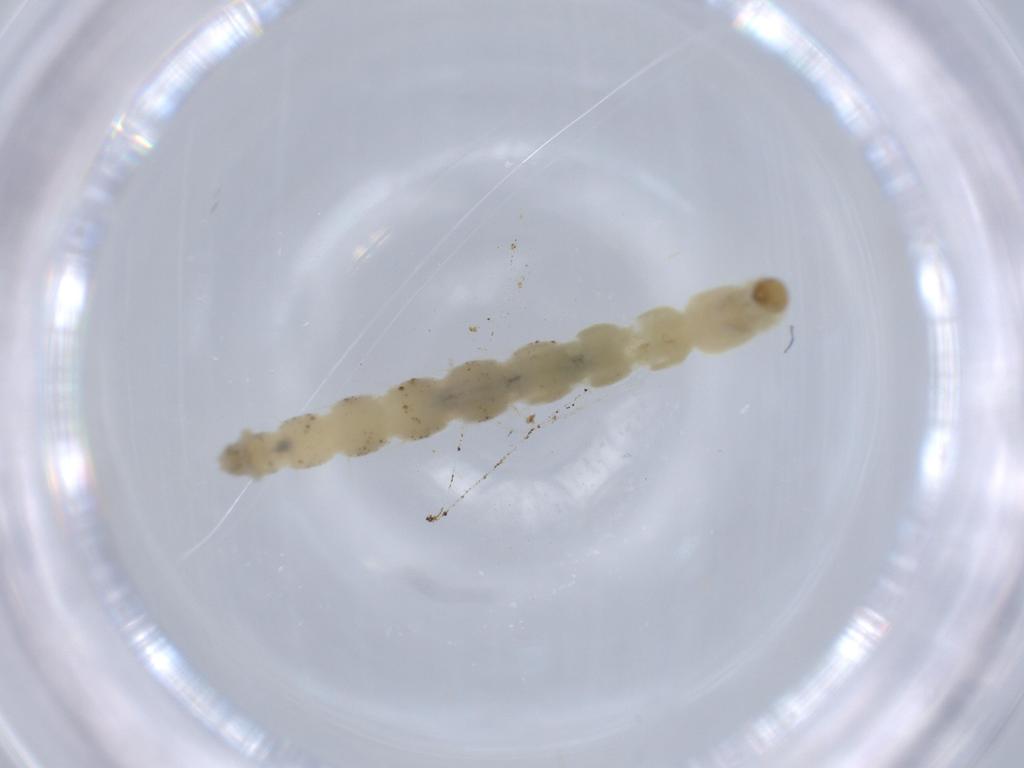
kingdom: Animalia
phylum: Arthropoda
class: Insecta
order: Diptera
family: Chironomidae
